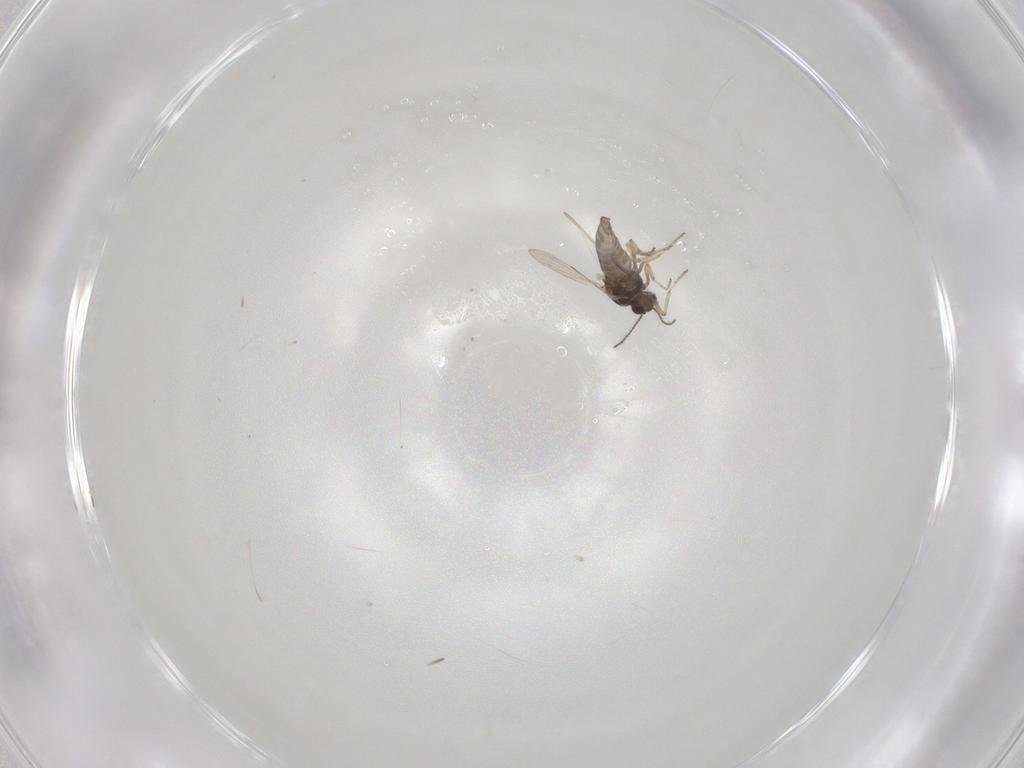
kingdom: Animalia
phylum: Arthropoda
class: Insecta
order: Diptera
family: Ceratopogonidae
